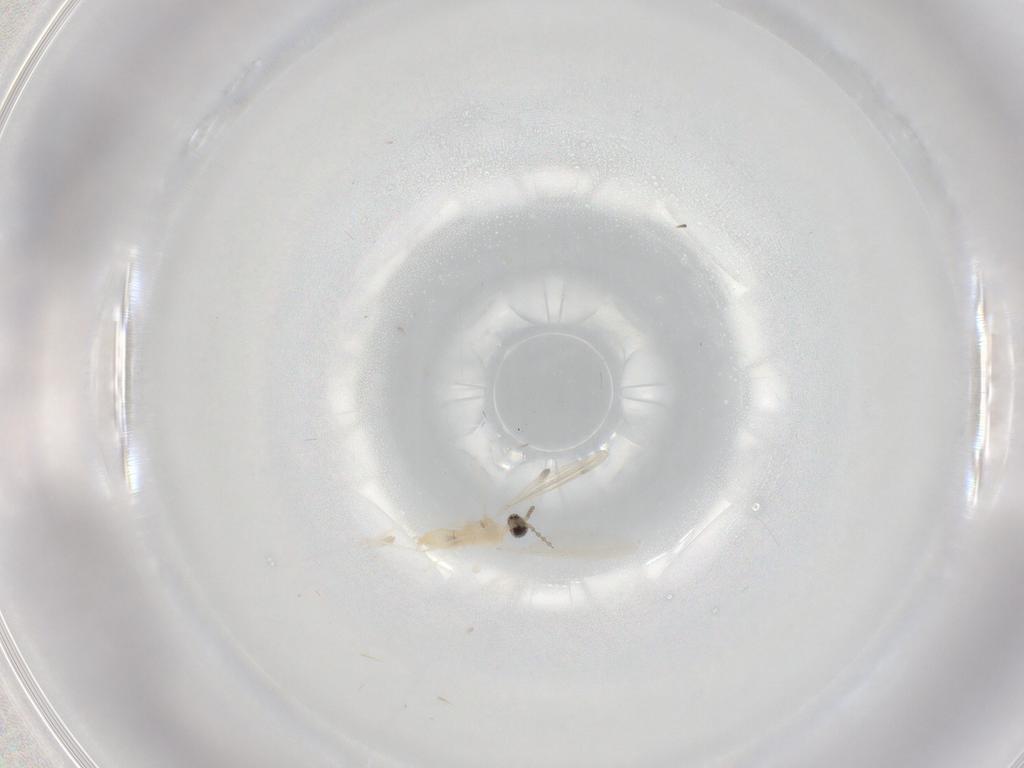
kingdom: Animalia
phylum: Arthropoda
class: Insecta
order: Diptera
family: Cecidomyiidae
